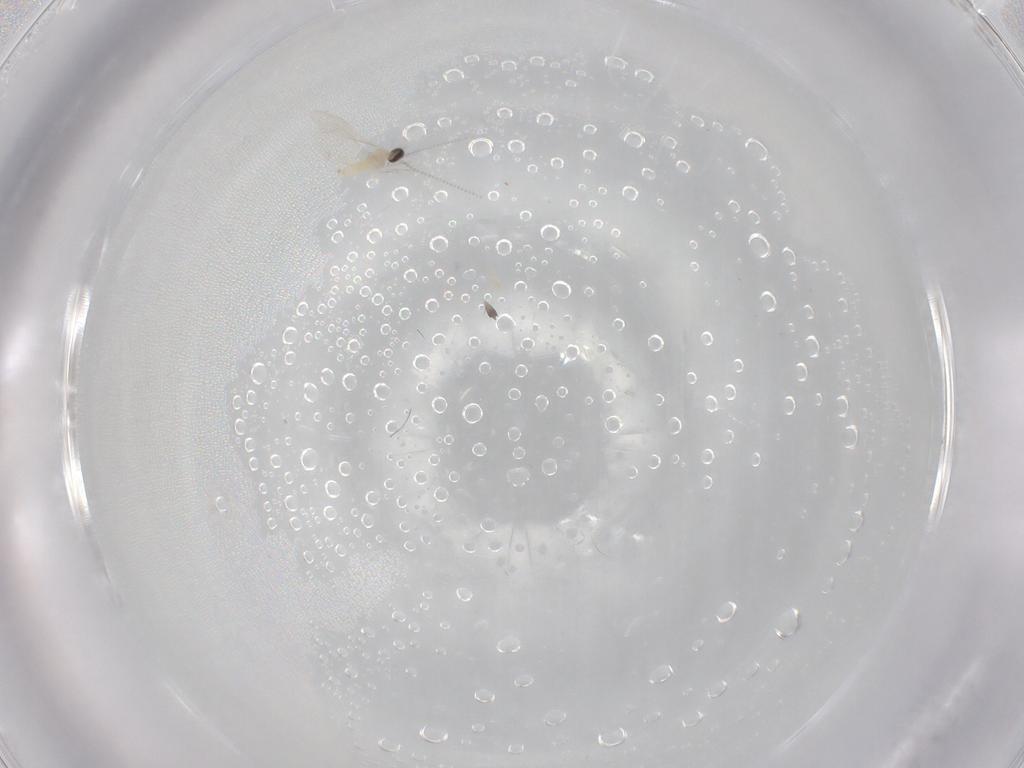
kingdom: Animalia
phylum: Arthropoda
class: Insecta
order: Diptera
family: Cecidomyiidae
